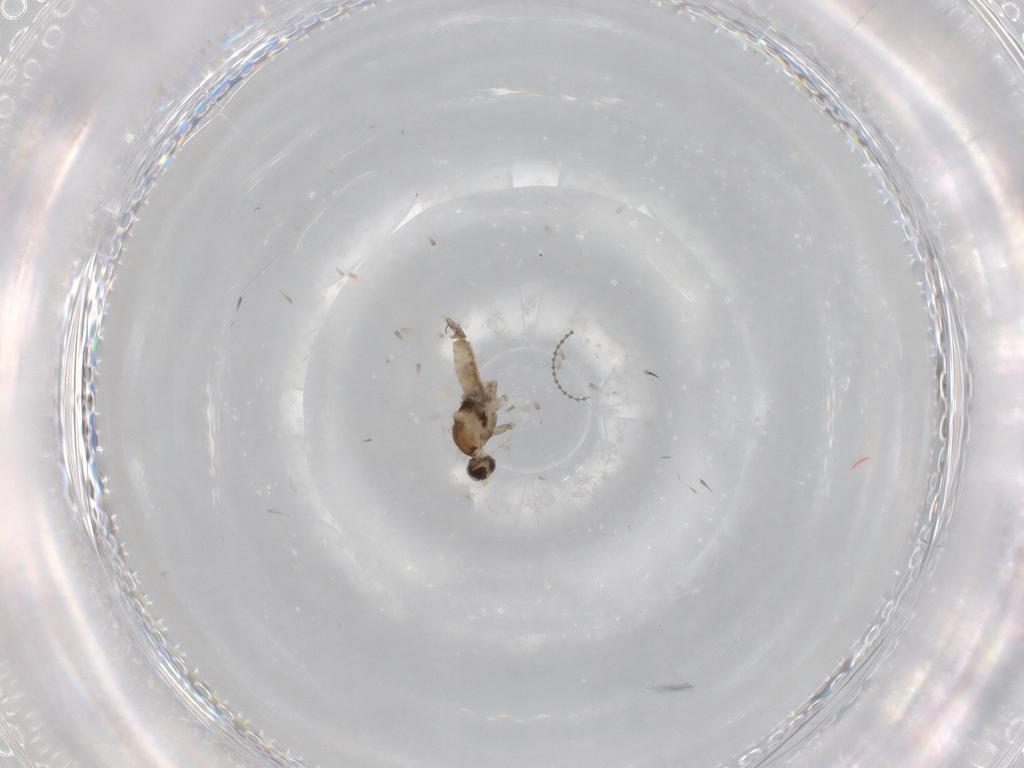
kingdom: Animalia
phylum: Arthropoda
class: Insecta
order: Diptera
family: Cecidomyiidae
